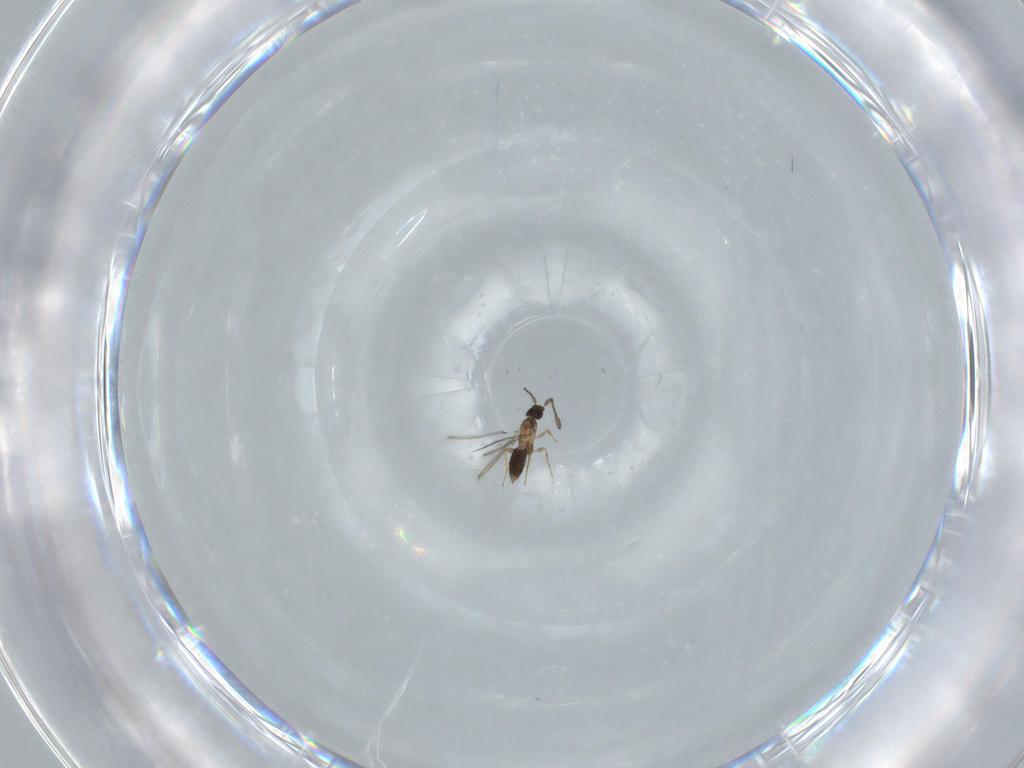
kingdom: Animalia
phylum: Arthropoda
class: Insecta
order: Hymenoptera
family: Mymaridae
